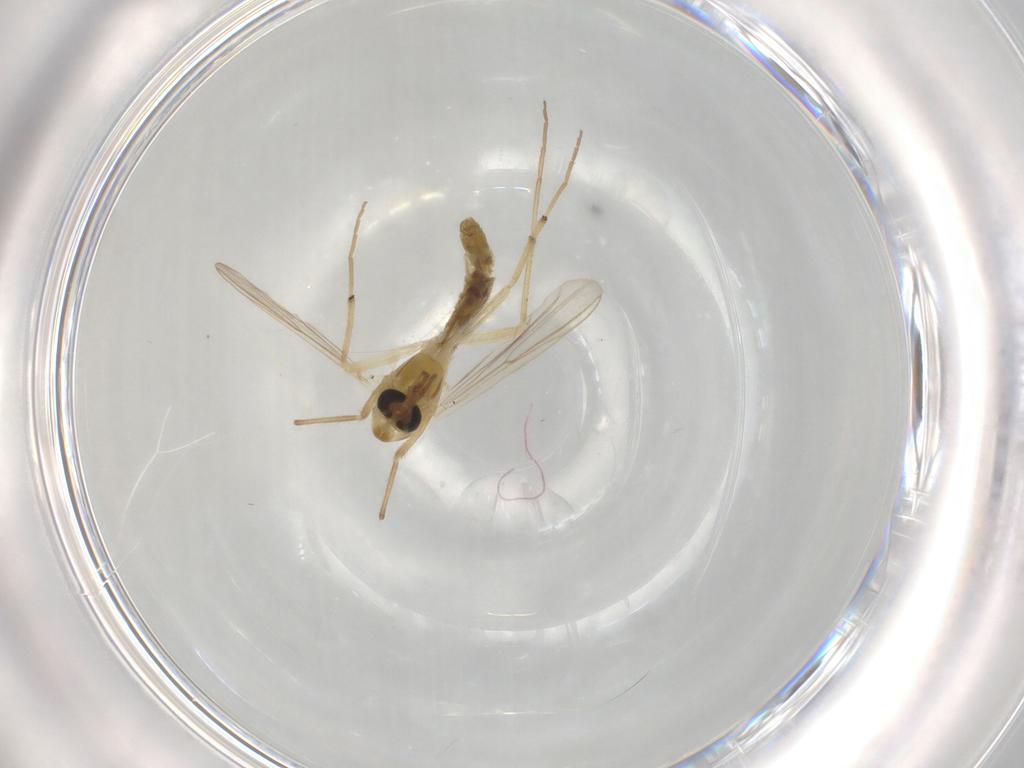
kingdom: Animalia
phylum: Arthropoda
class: Insecta
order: Diptera
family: Chironomidae
